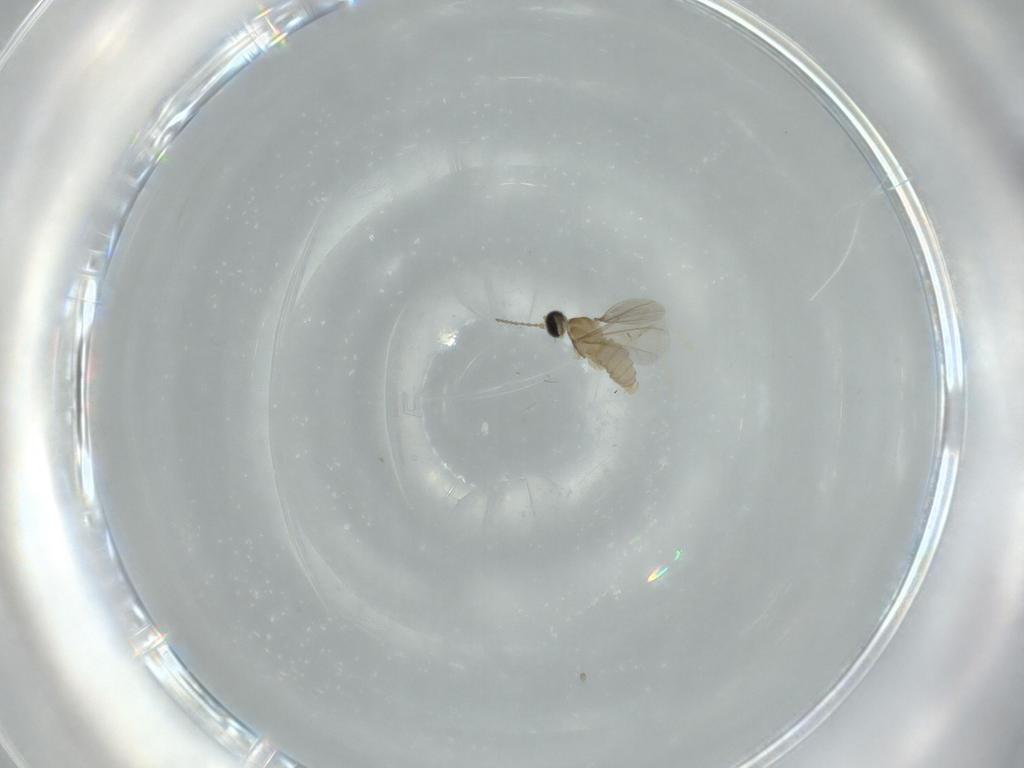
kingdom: Animalia
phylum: Arthropoda
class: Insecta
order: Diptera
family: Cecidomyiidae
